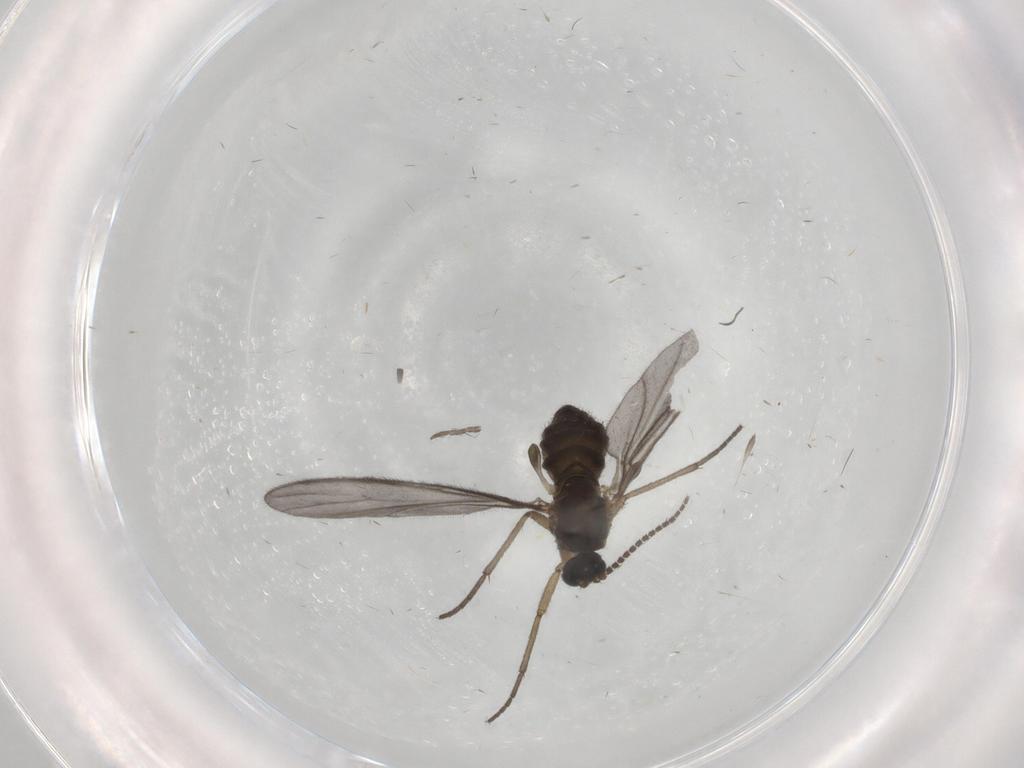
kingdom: Animalia
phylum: Arthropoda
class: Insecta
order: Diptera
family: Sciaridae
